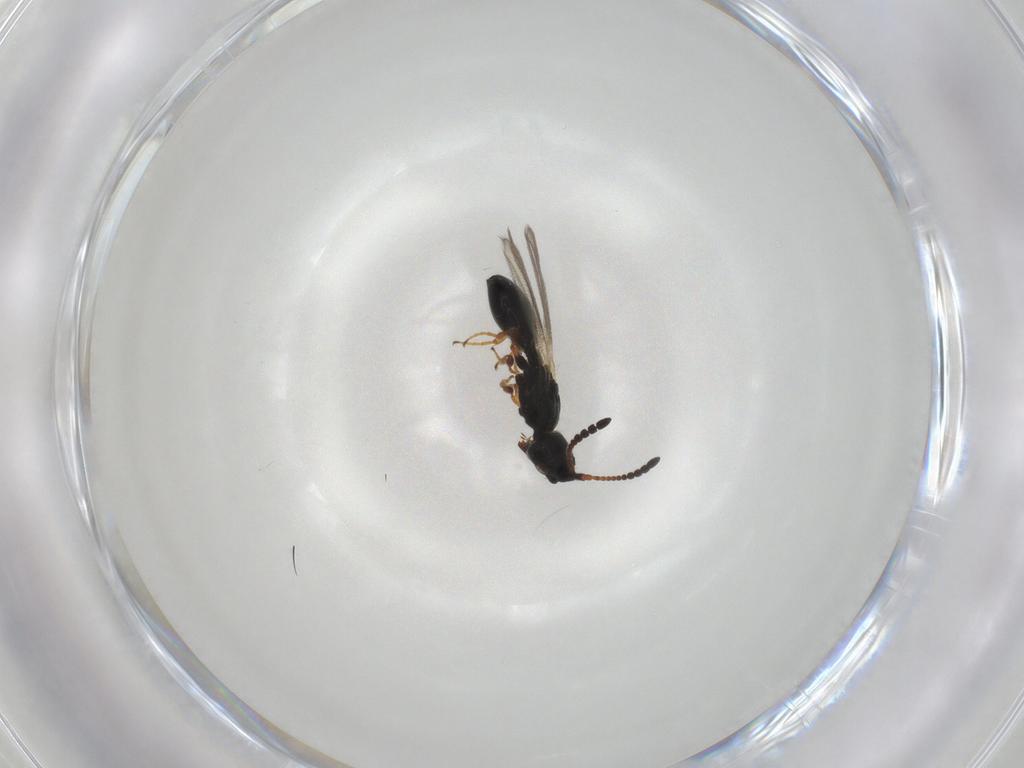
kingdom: Animalia
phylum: Arthropoda
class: Insecta
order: Hymenoptera
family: Diapriidae
